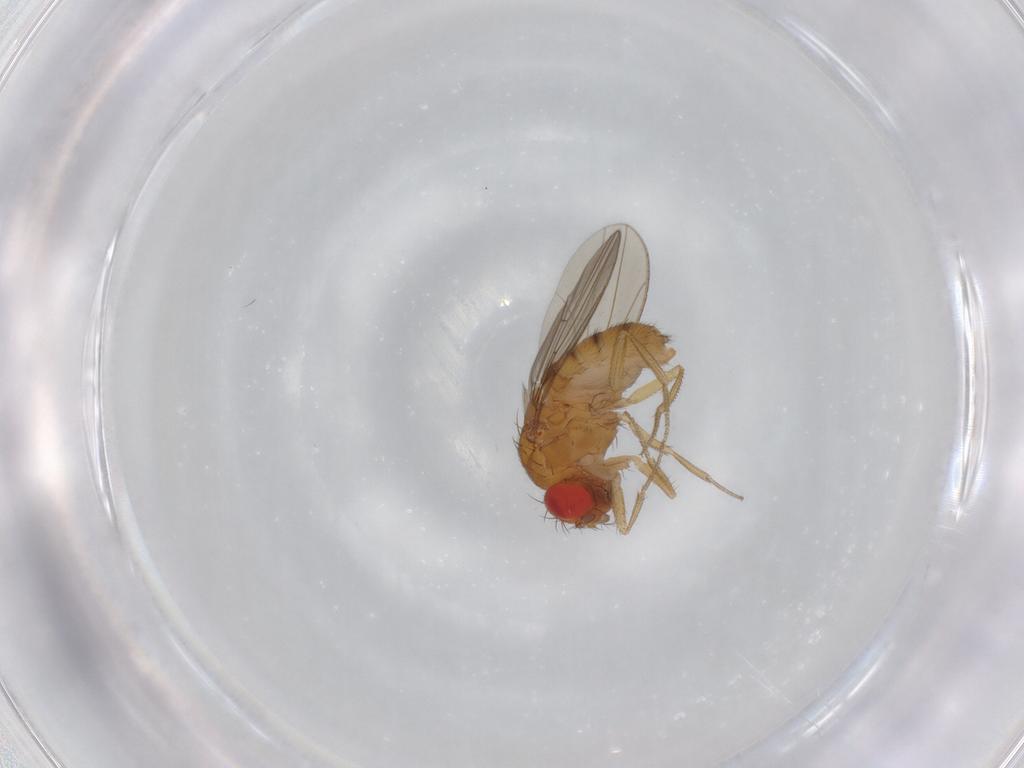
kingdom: Animalia
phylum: Arthropoda
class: Insecta
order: Diptera
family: Drosophilidae
